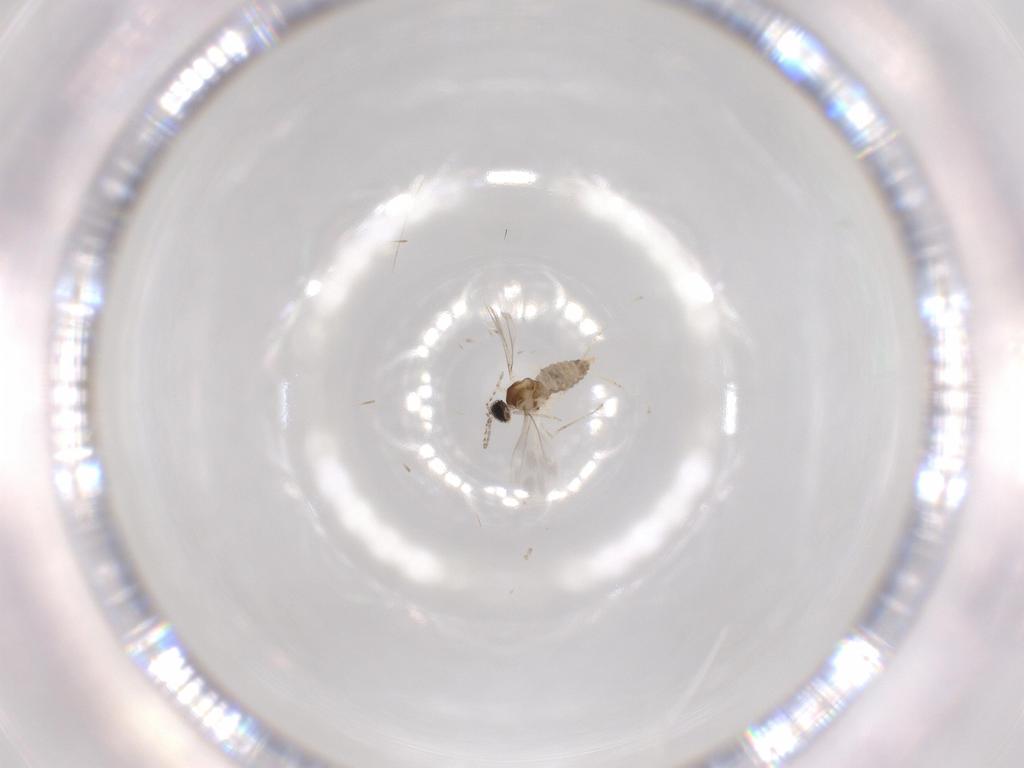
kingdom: Animalia
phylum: Arthropoda
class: Insecta
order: Diptera
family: Cecidomyiidae
